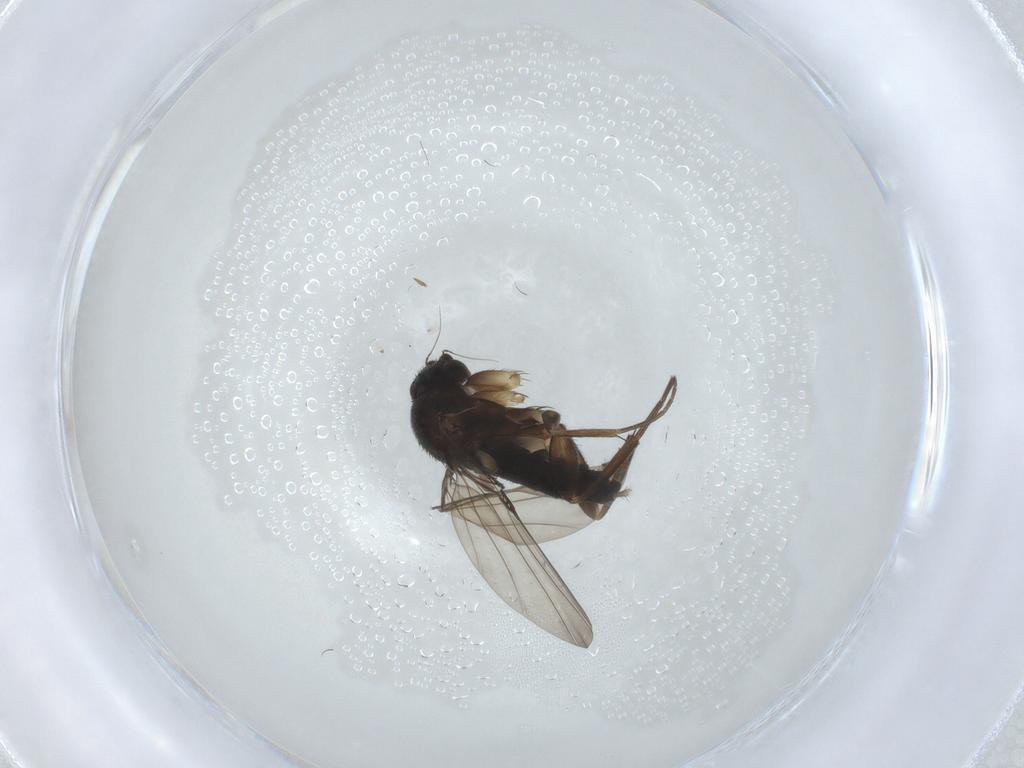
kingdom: Animalia
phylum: Arthropoda
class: Insecta
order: Diptera
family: Phoridae
